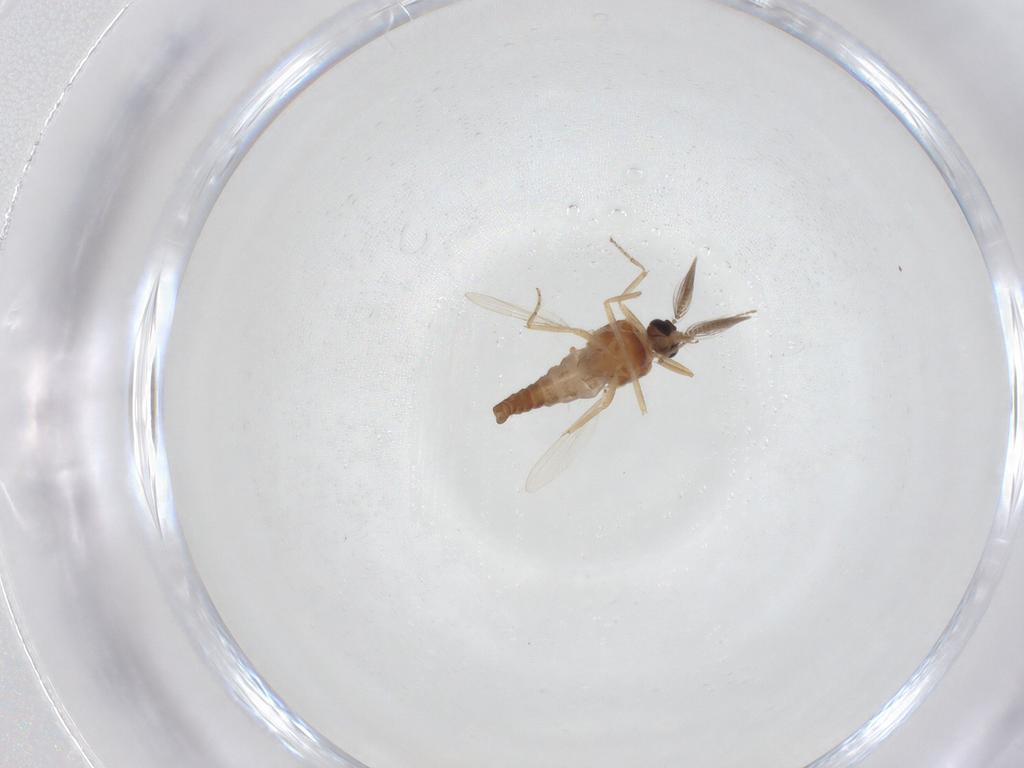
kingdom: Animalia
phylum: Arthropoda
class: Insecta
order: Diptera
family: Ceratopogonidae
